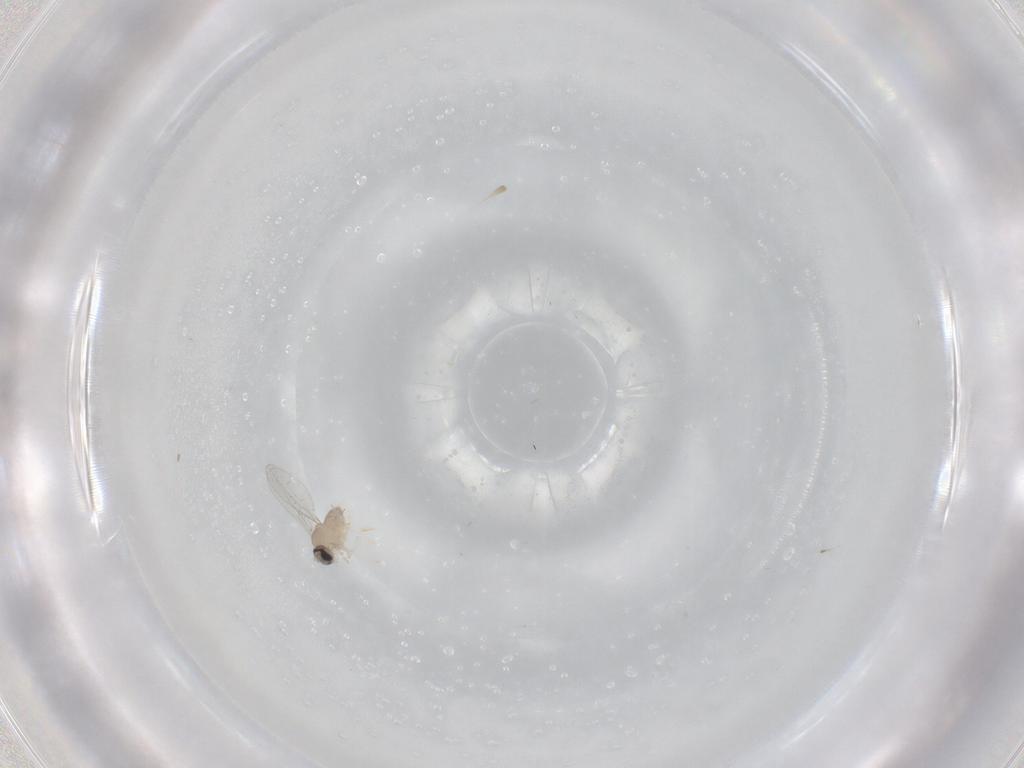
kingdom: Animalia
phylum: Arthropoda
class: Insecta
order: Diptera
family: Cecidomyiidae
